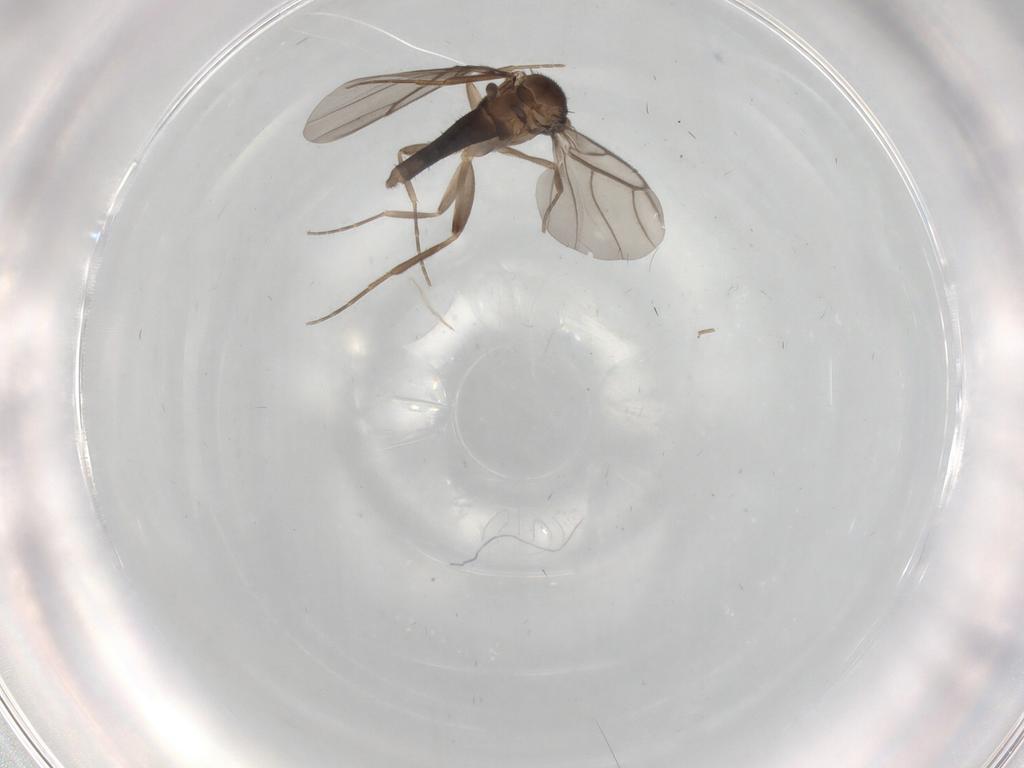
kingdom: Animalia
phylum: Arthropoda
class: Insecta
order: Diptera
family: Phoridae
